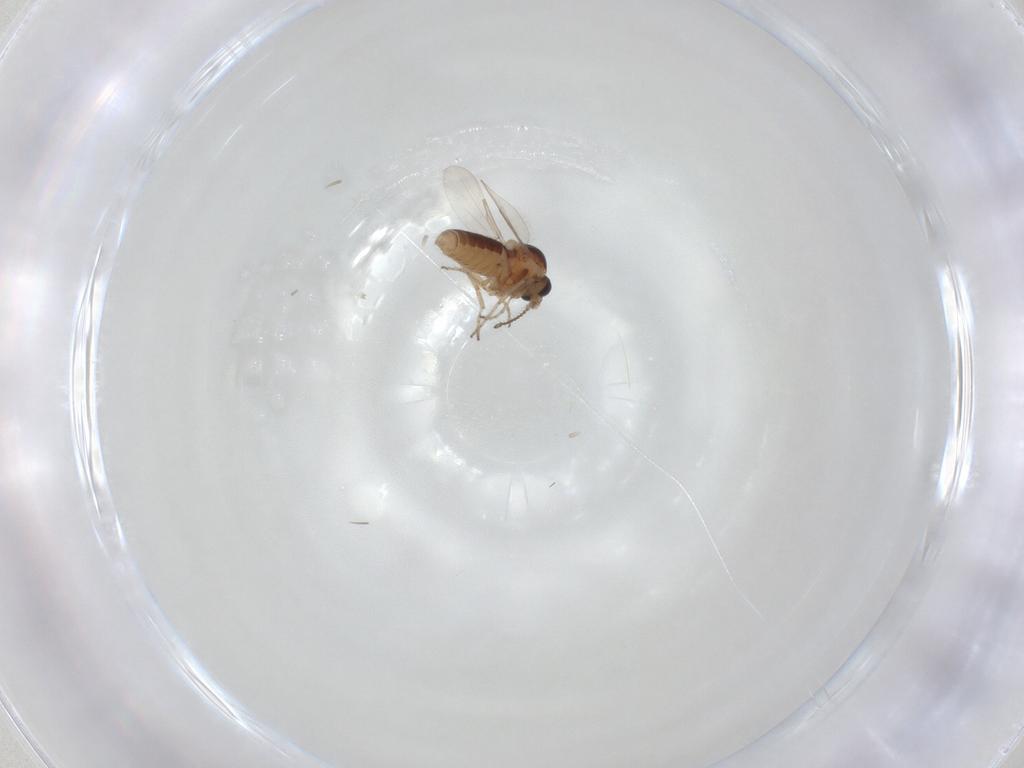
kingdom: Animalia
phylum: Arthropoda
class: Insecta
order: Diptera
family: Ceratopogonidae
